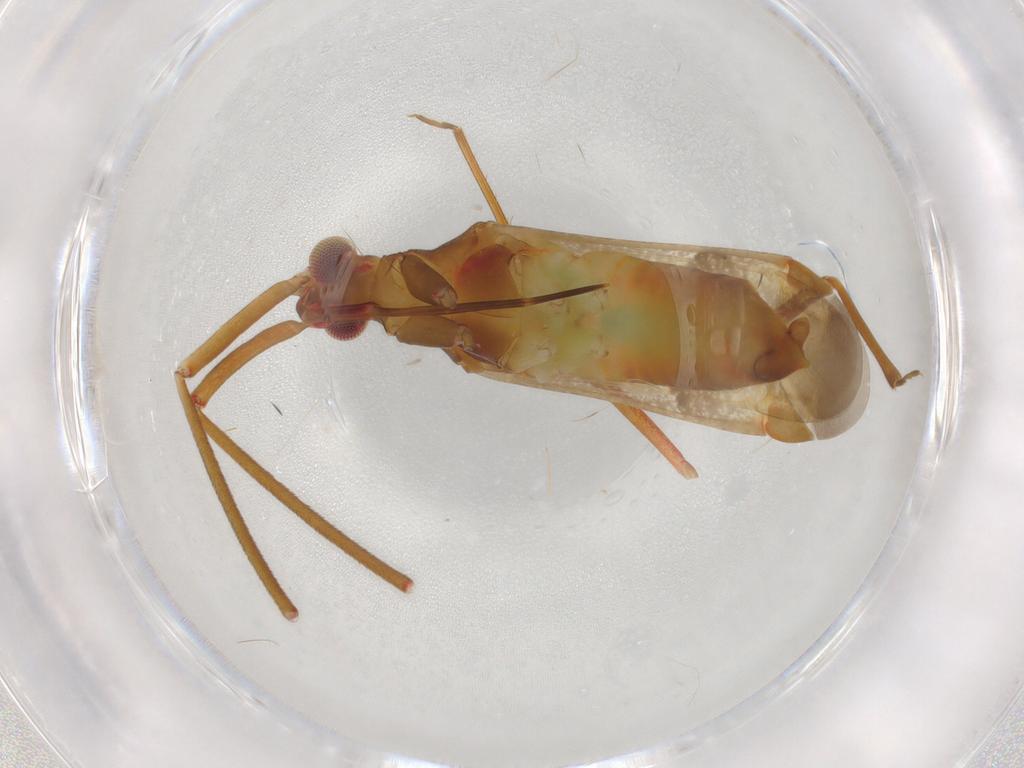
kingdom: Animalia
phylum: Arthropoda
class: Insecta
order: Hemiptera
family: Miridae
